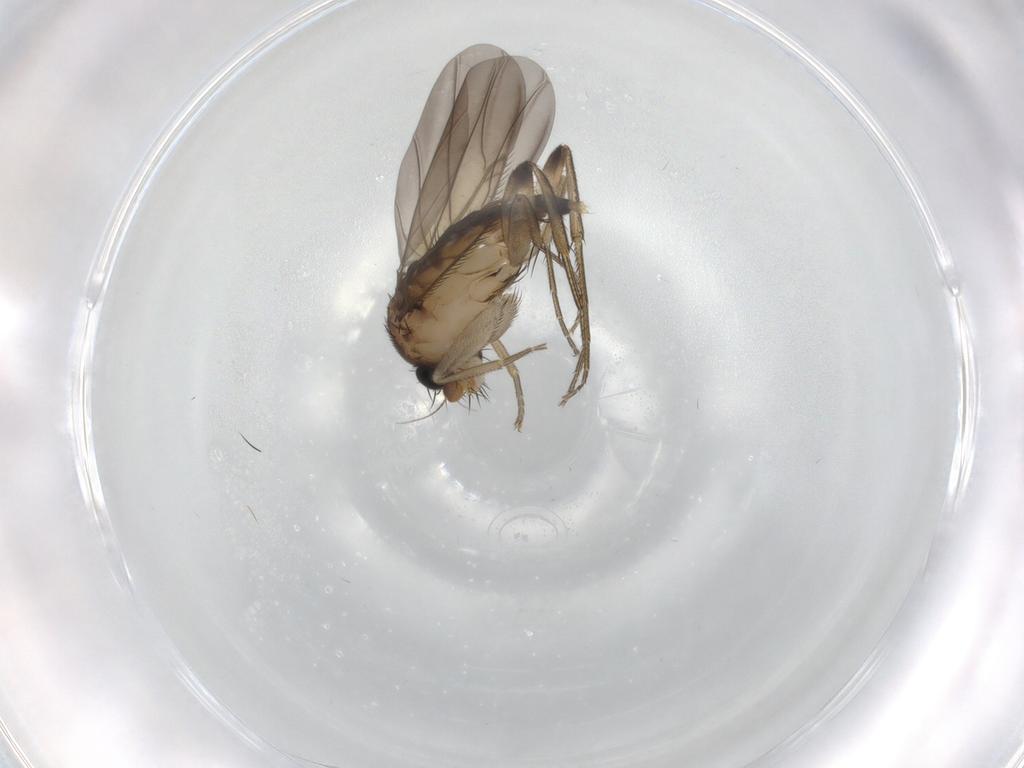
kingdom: Animalia
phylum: Arthropoda
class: Insecta
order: Diptera
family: Phoridae
